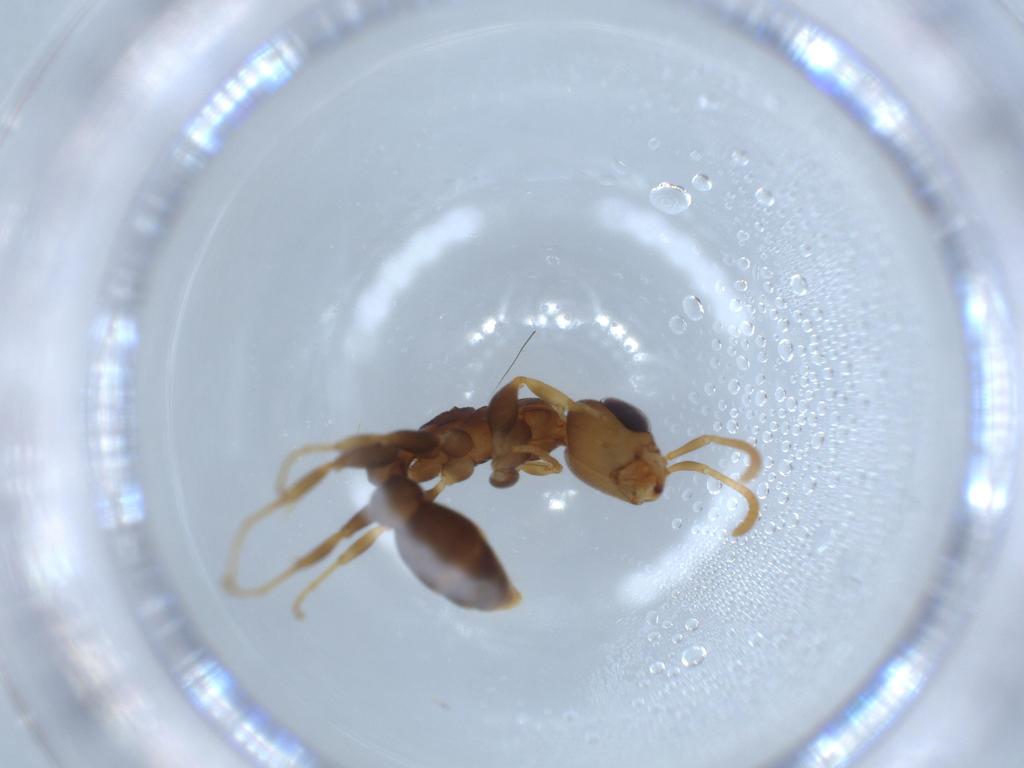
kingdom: Animalia
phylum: Arthropoda
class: Insecta
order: Hymenoptera
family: Formicidae
